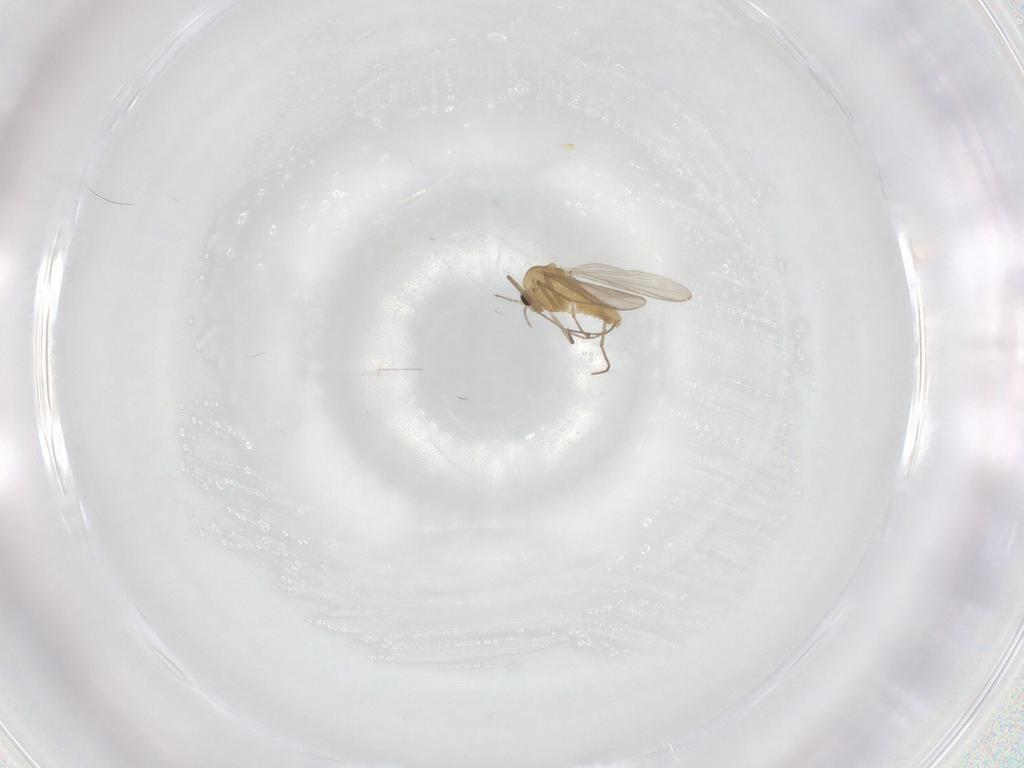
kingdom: Animalia
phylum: Arthropoda
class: Insecta
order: Diptera
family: Chironomidae
